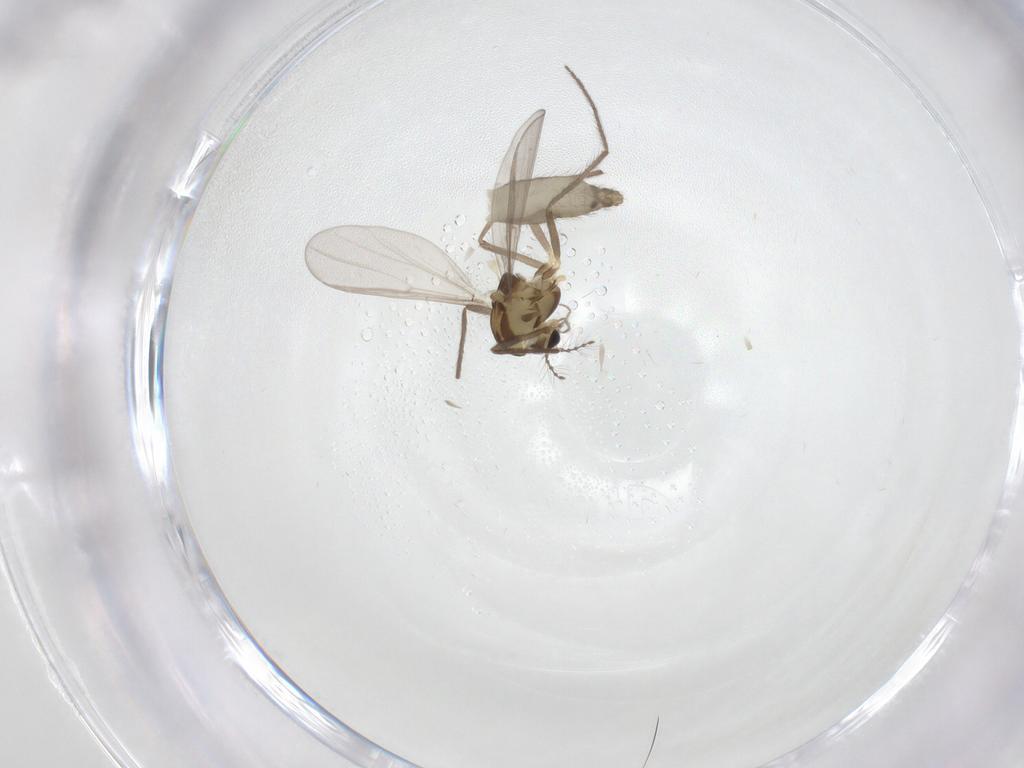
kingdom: Animalia
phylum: Arthropoda
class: Insecta
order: Diptera
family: Chironomidae
